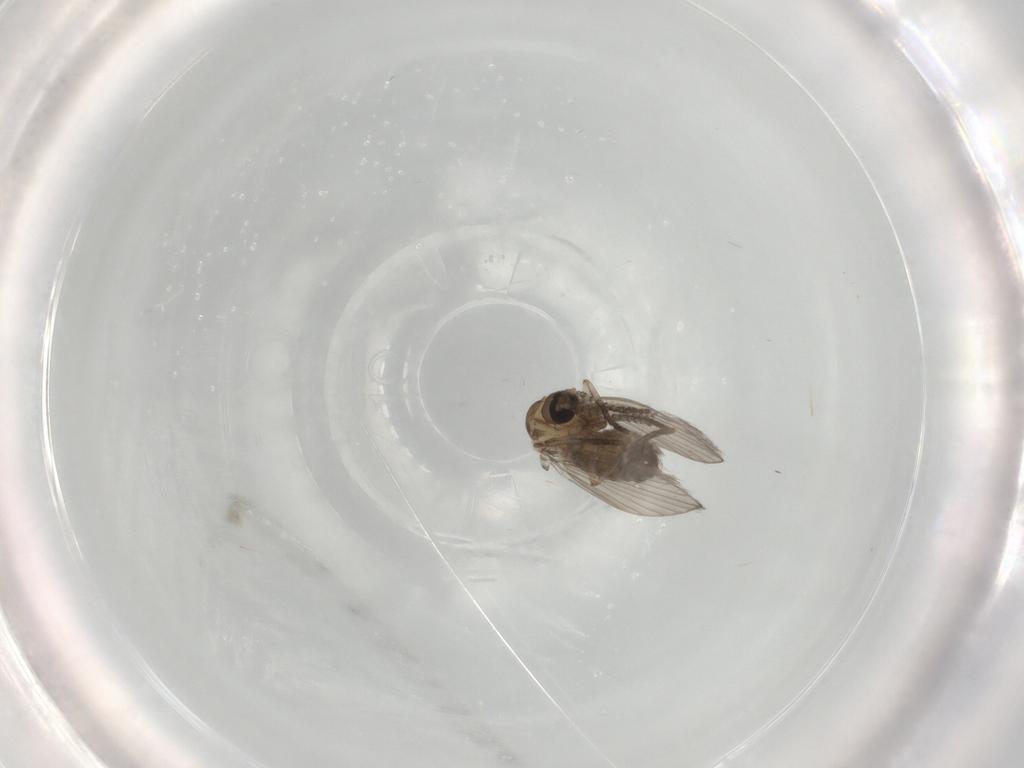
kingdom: Animalia
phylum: Arthropoda
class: Insecta
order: Diptera
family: Psychodidae
